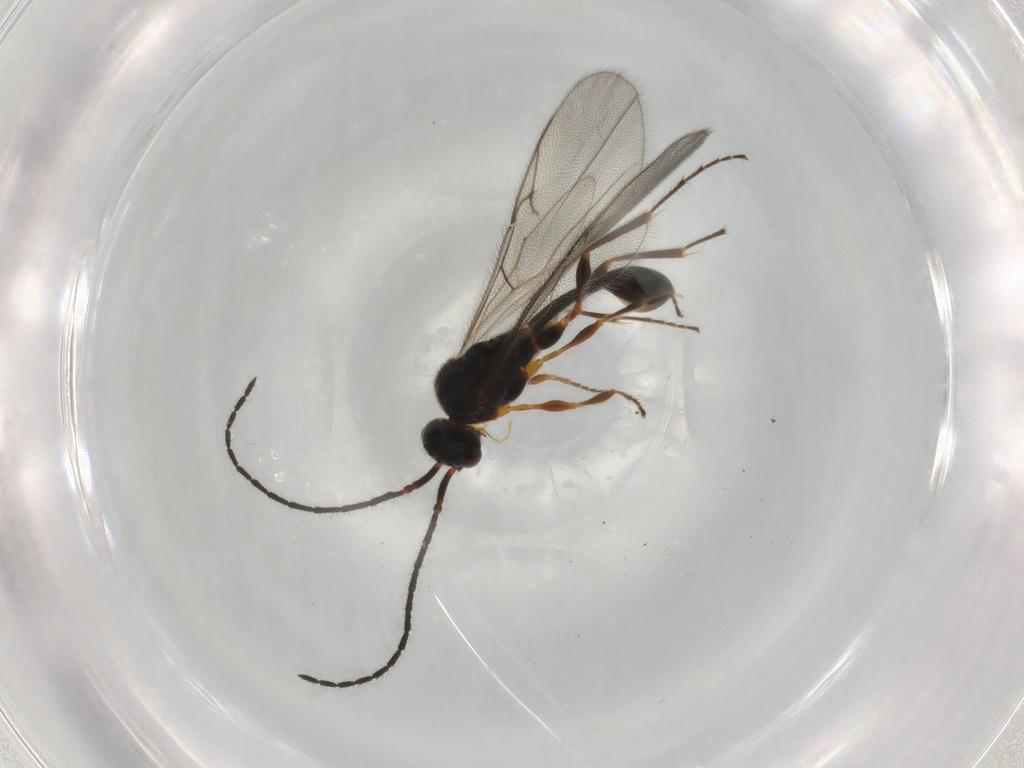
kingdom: Animalia
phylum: Arthropoda
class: Insecta
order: Hymenoptera
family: Diapriidae
